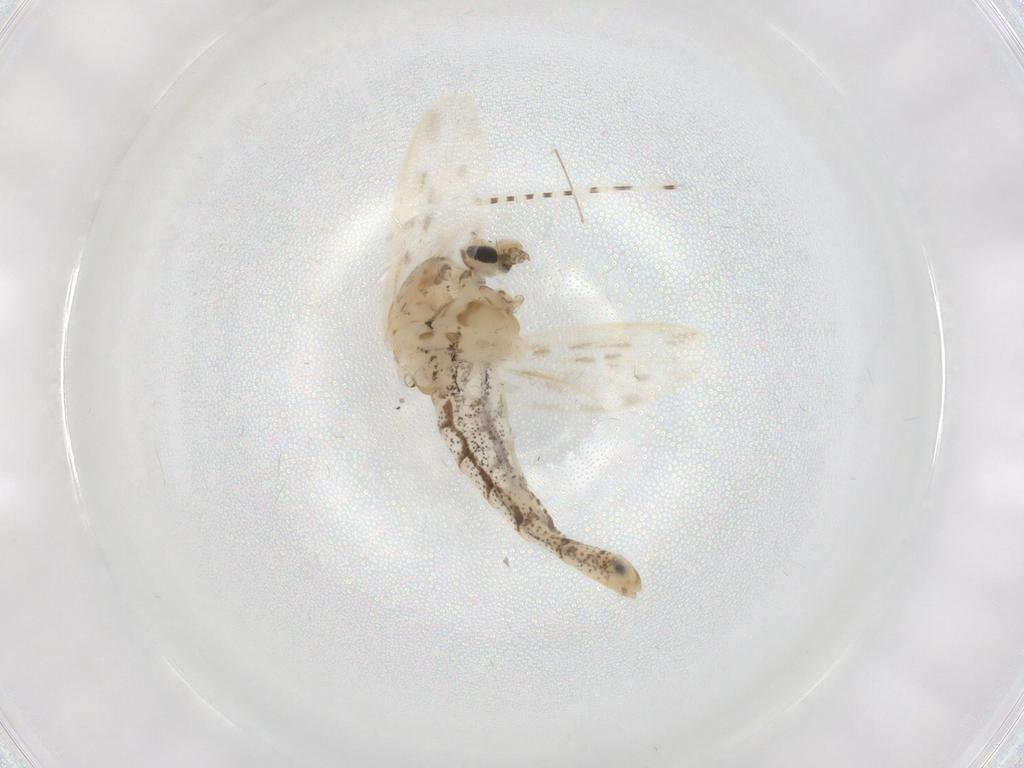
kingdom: Animalia
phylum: Arthropoda
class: Insecta
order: Diptera
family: Chaoboridae
